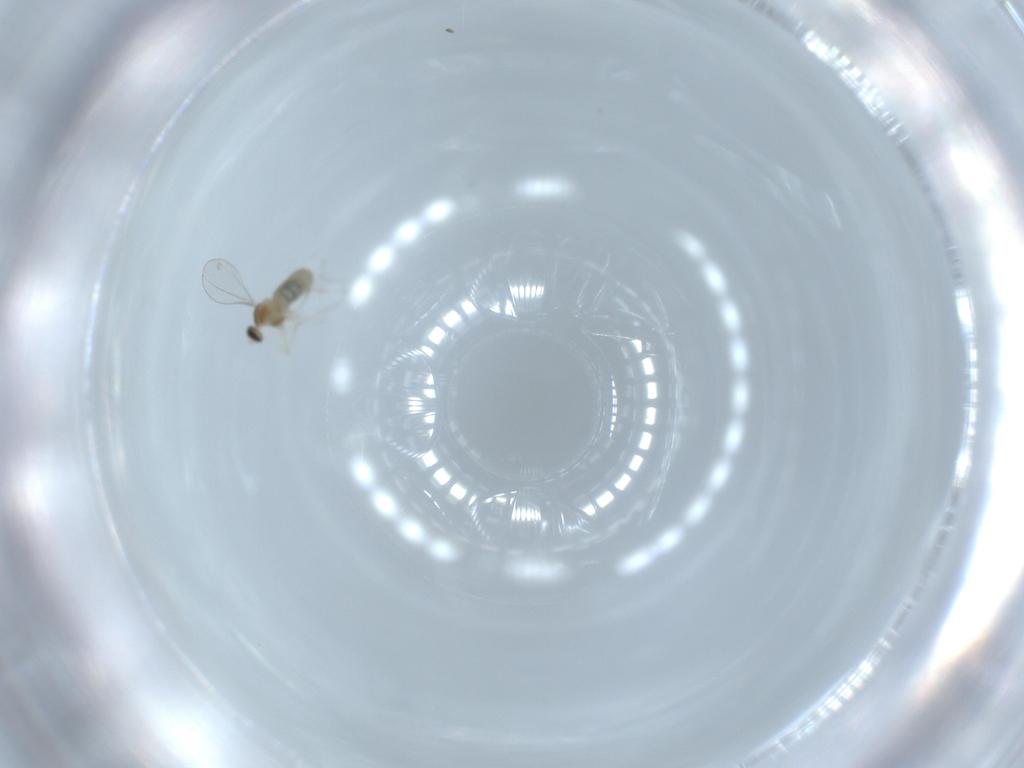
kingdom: Animalia
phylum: Arthropoda
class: Insecta
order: Diptera
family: Cecidomyiidae
